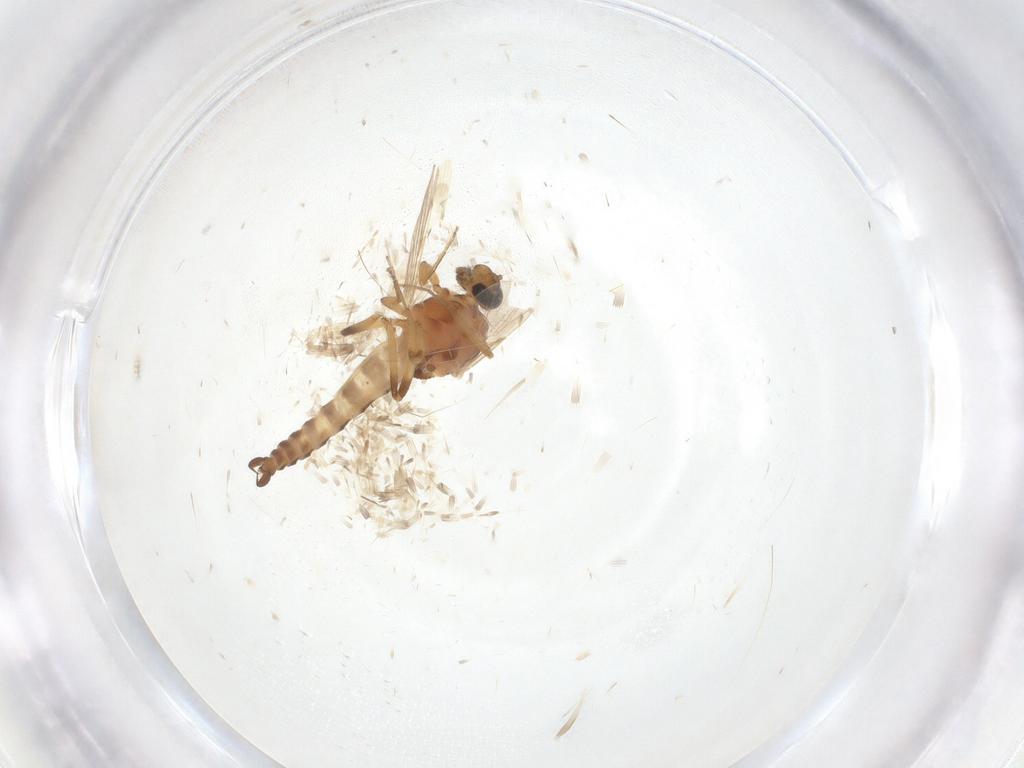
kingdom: Animalia
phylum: Arthropoda
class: Insecta
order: Diptera
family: Ceratopogonidae
